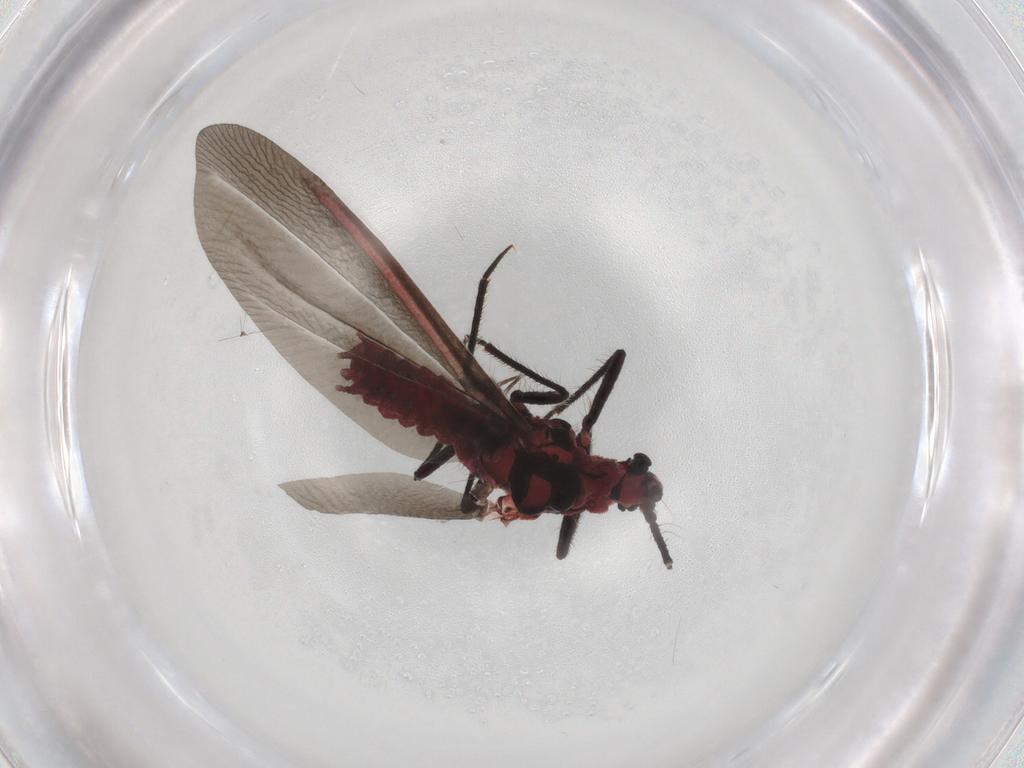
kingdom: Animalia
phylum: Arthropoda
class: Insecta
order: Hemiptera
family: Monophlebidae
